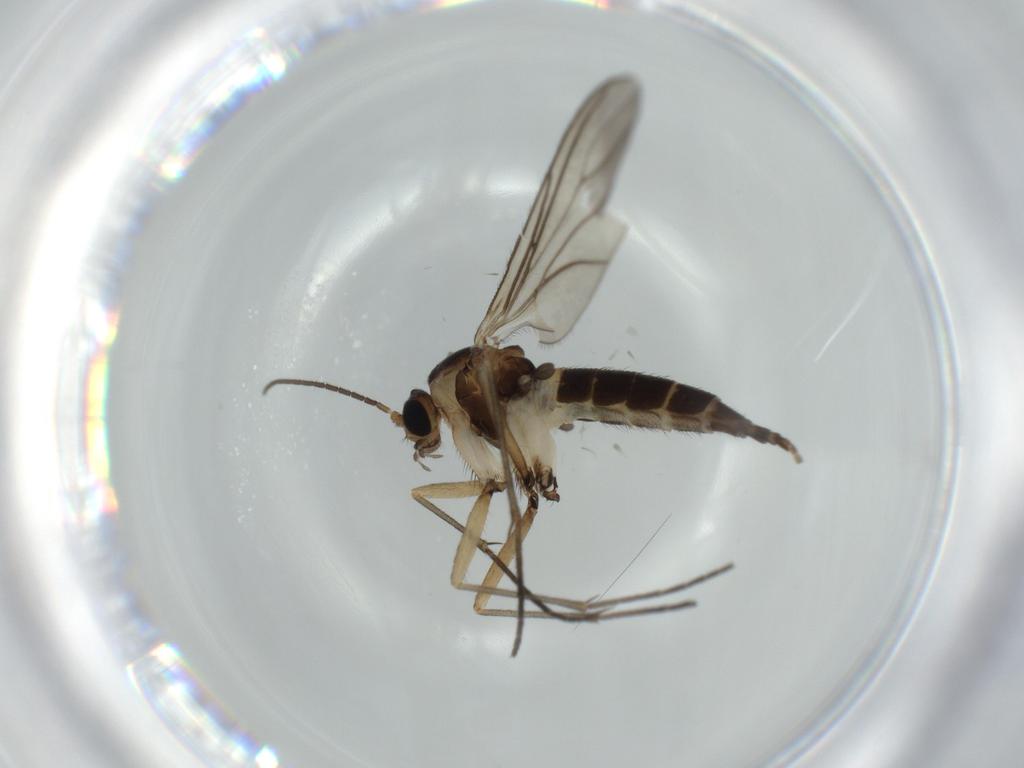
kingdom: Animalia
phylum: Arthropoda
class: Insecta
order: Diptera
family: Sciaridae
